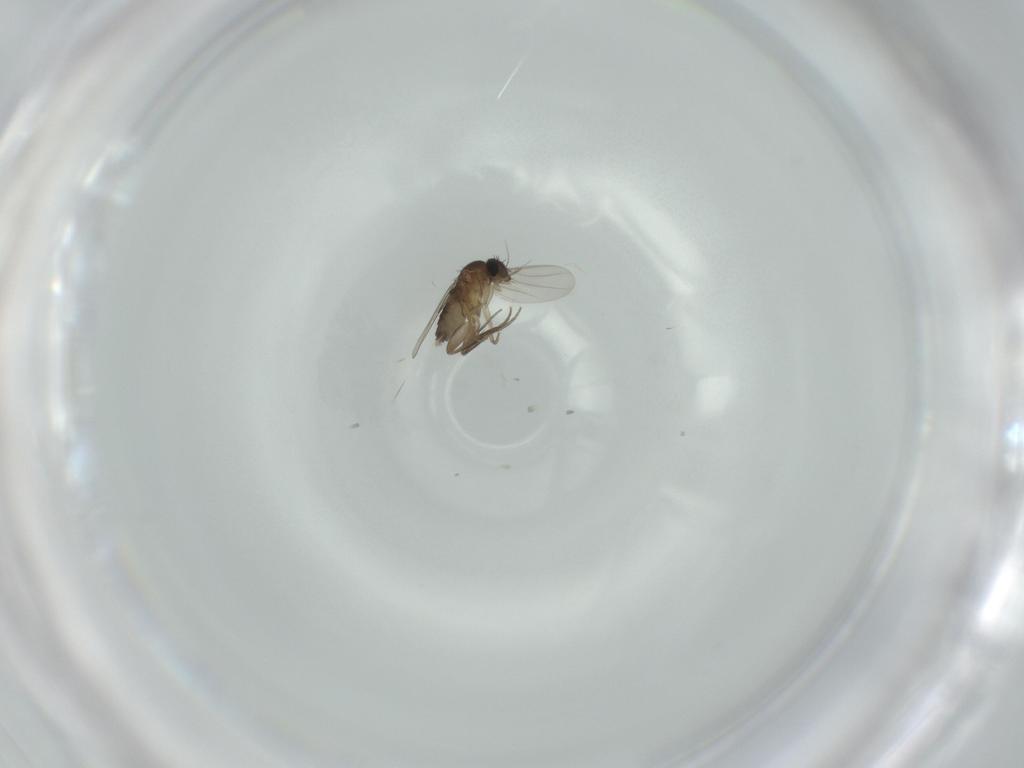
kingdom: Animalia
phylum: Arthropoda
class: Insecta
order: Diptera
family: Phoridae
